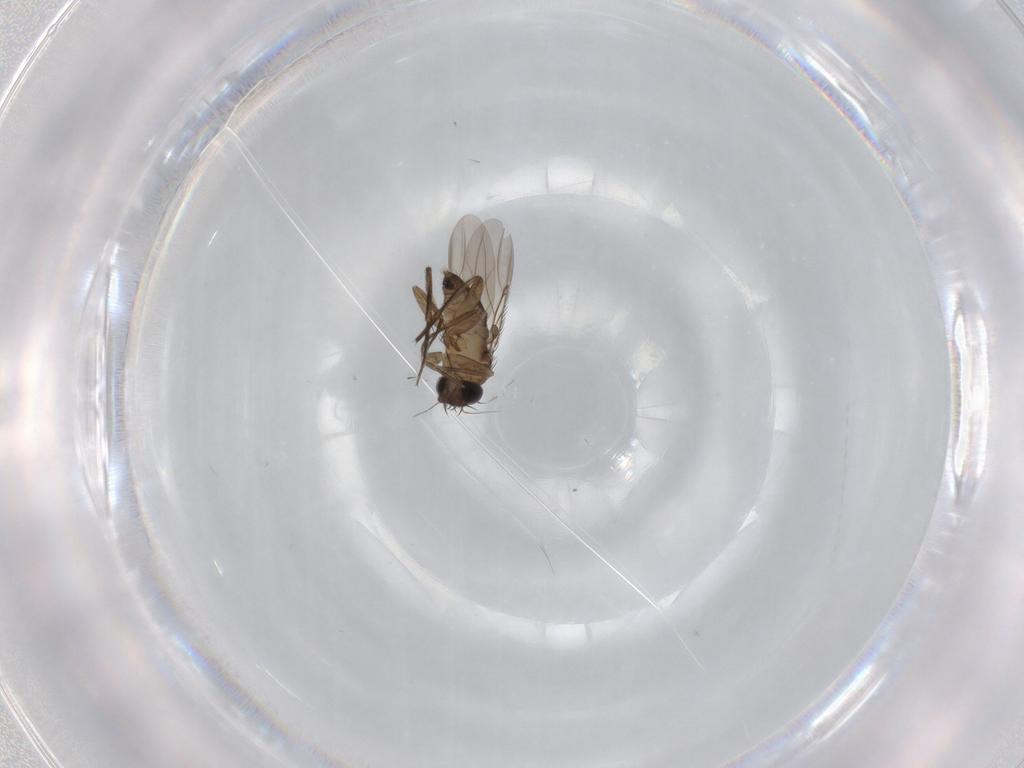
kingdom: Animalia
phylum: Arthropoda
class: Insecta
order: Diptera
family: Phoridae
